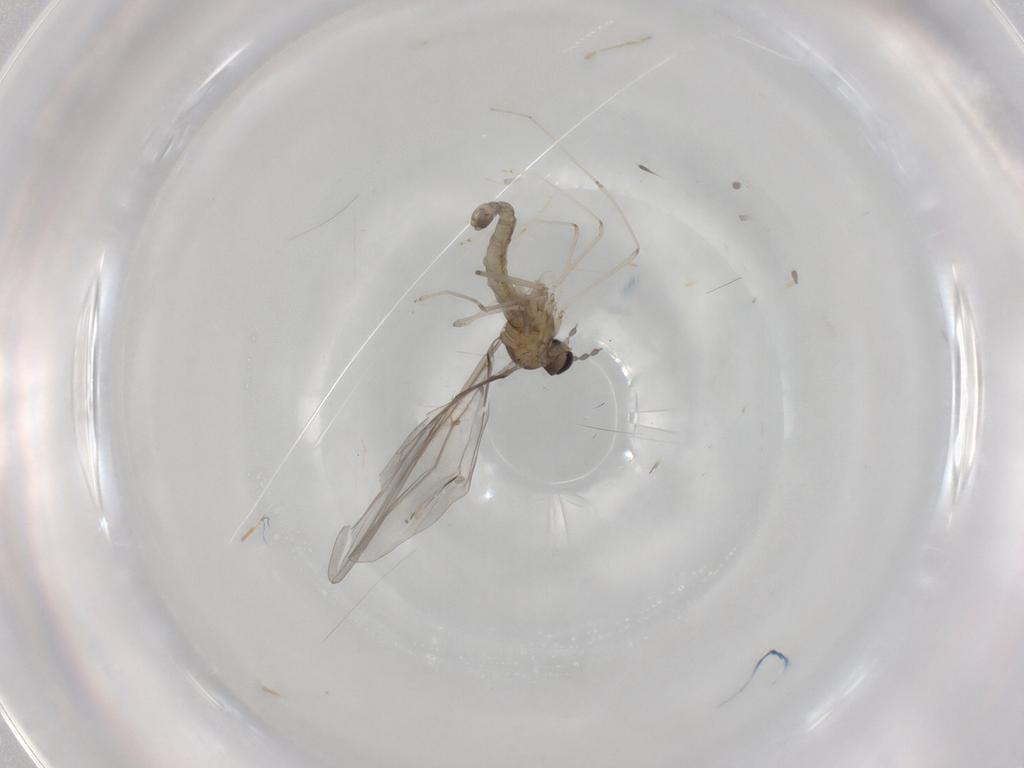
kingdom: Animalia
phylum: Arthropoda
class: Insecta
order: Diptera
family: Cecidomyiidae
